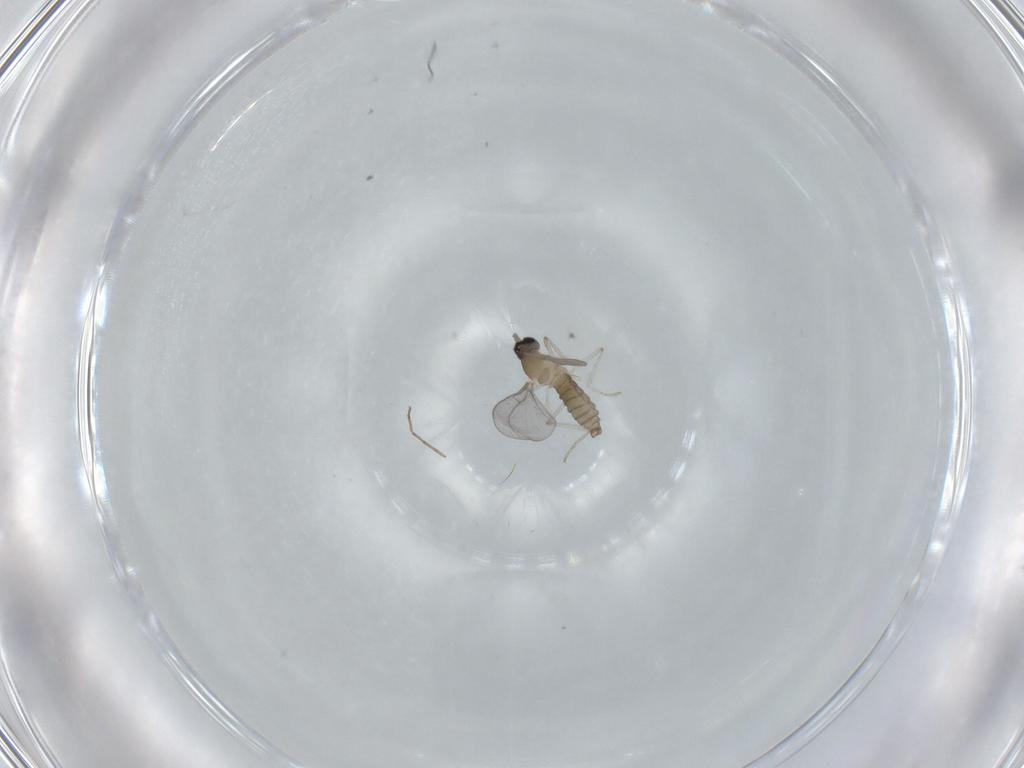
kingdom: Animalia
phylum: Arthropoda
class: Insecta
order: Diptera
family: Cecidomyiidae
